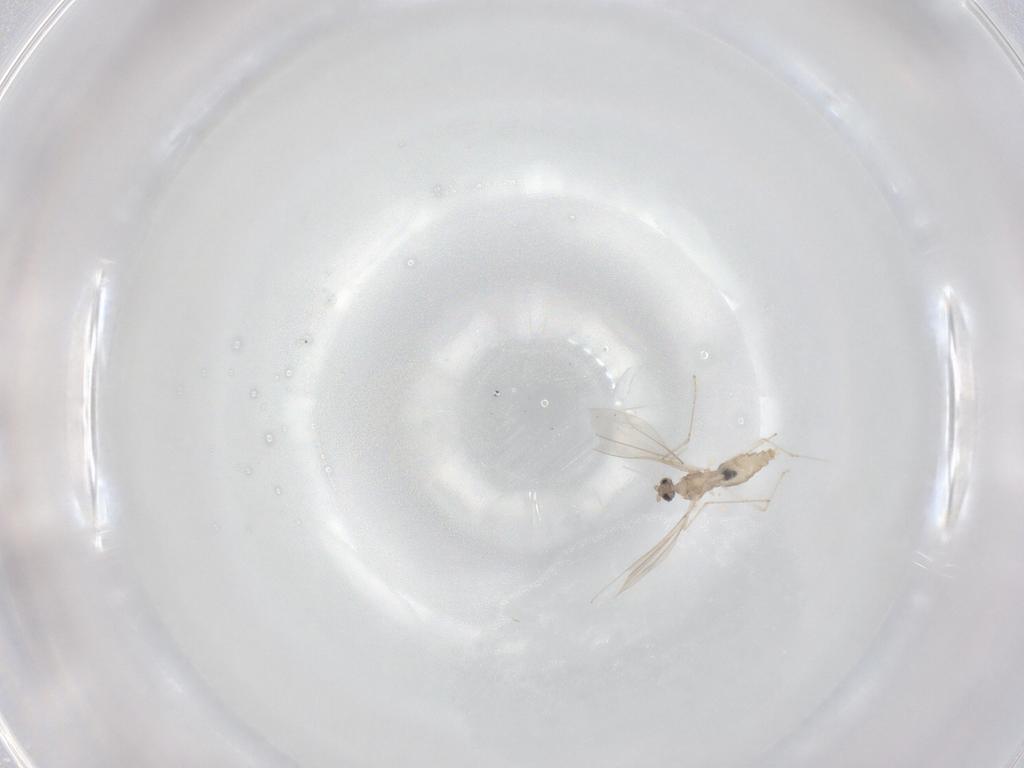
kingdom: Animalia
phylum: Arthropoda
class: Insecta
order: Diptera
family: Cecidomyiidae
